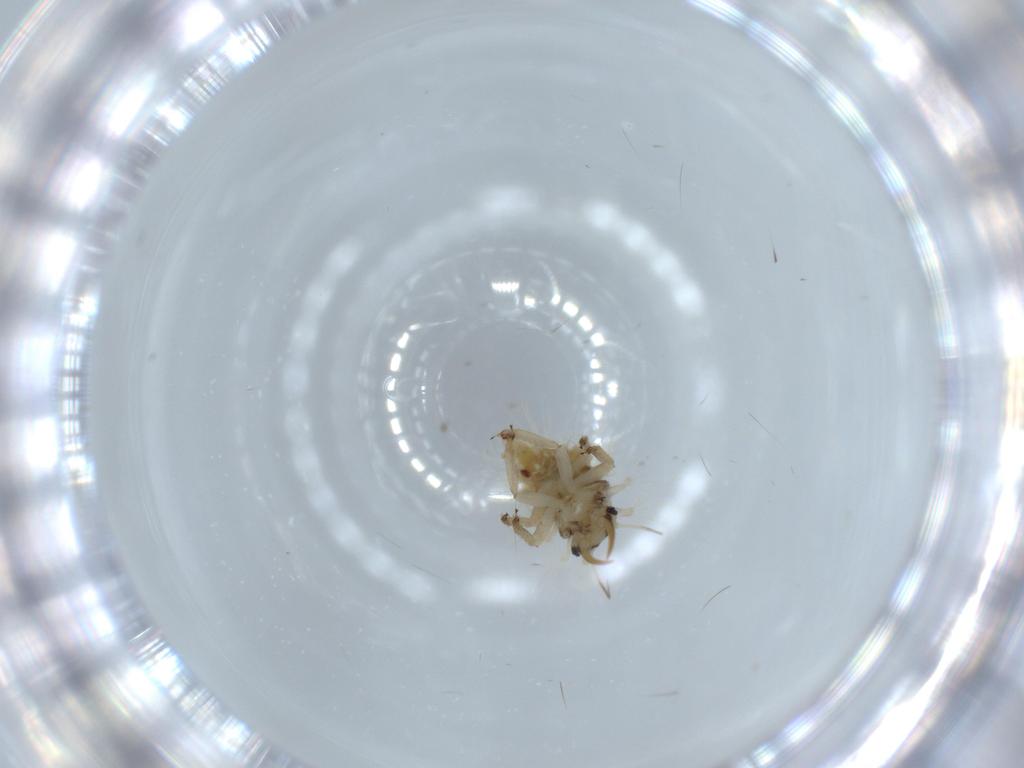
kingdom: Animalia
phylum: Arthropoda
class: Insecta
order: Neuroptera
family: Chrysopidae
